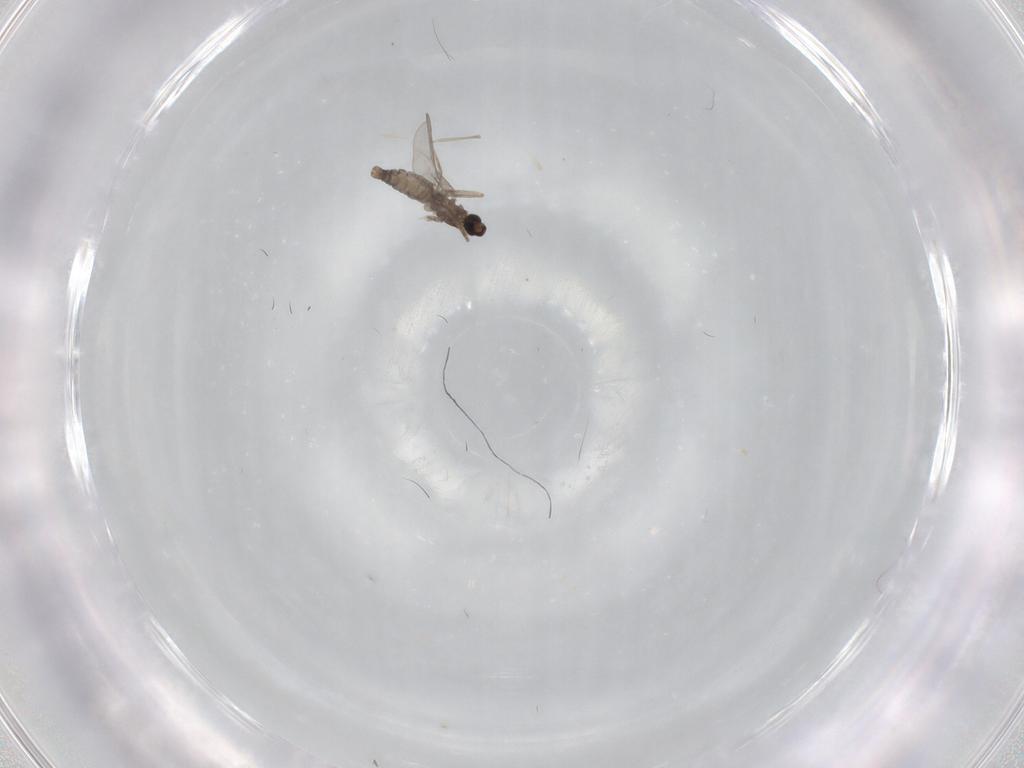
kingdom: Animalia
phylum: Arthropoda
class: Insecta
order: Diptera
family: Cecidomyiidae
